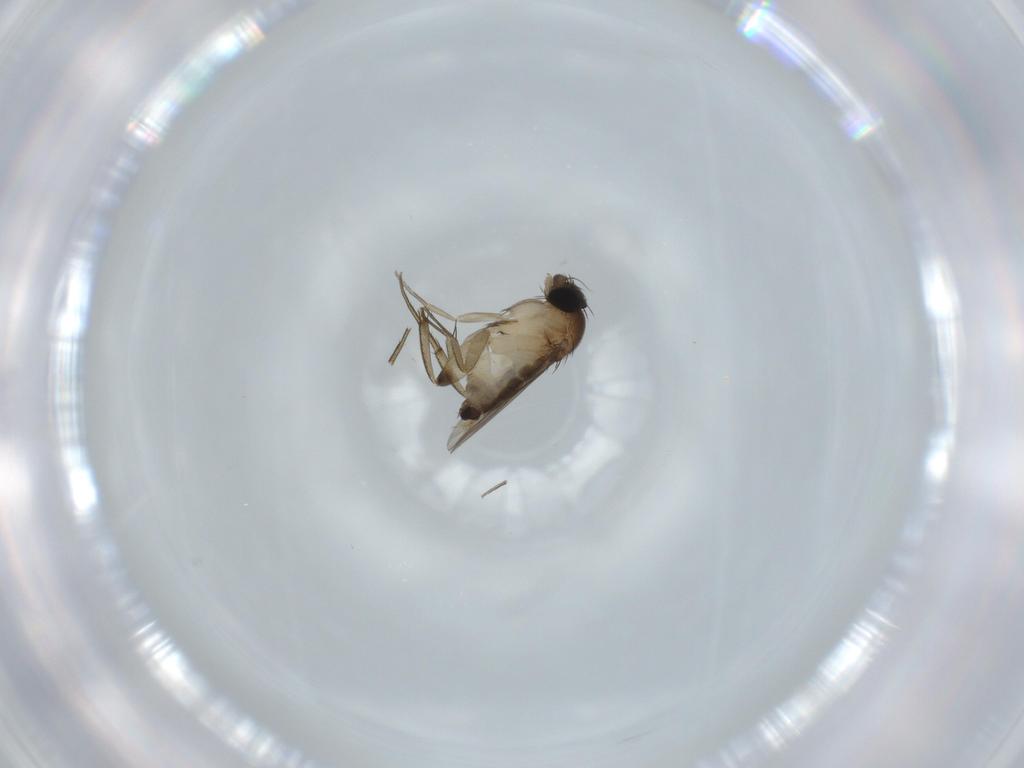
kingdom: Animalia
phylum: Arthropoda
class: Insecta
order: Diptera
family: Phoridae
